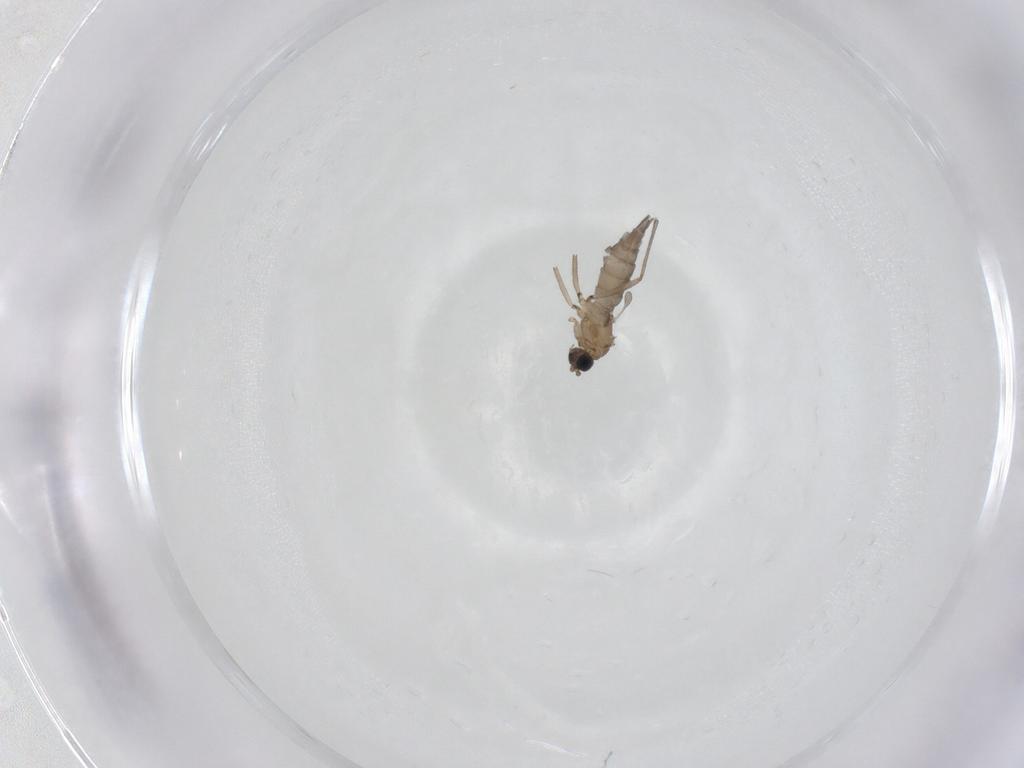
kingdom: Animalia
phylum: Arthropoda
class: Insecta
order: Diptera
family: Sciaridae
